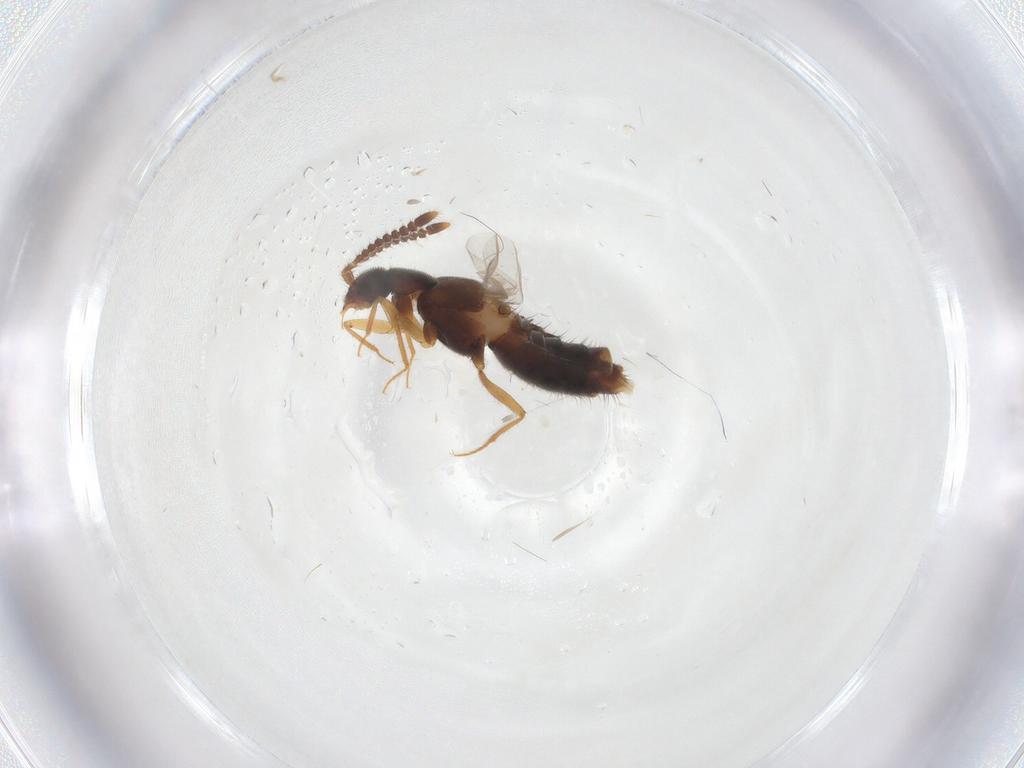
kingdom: Animalia
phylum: Arthropoda
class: Insecta
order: Coleoptera
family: Staphylinidae
